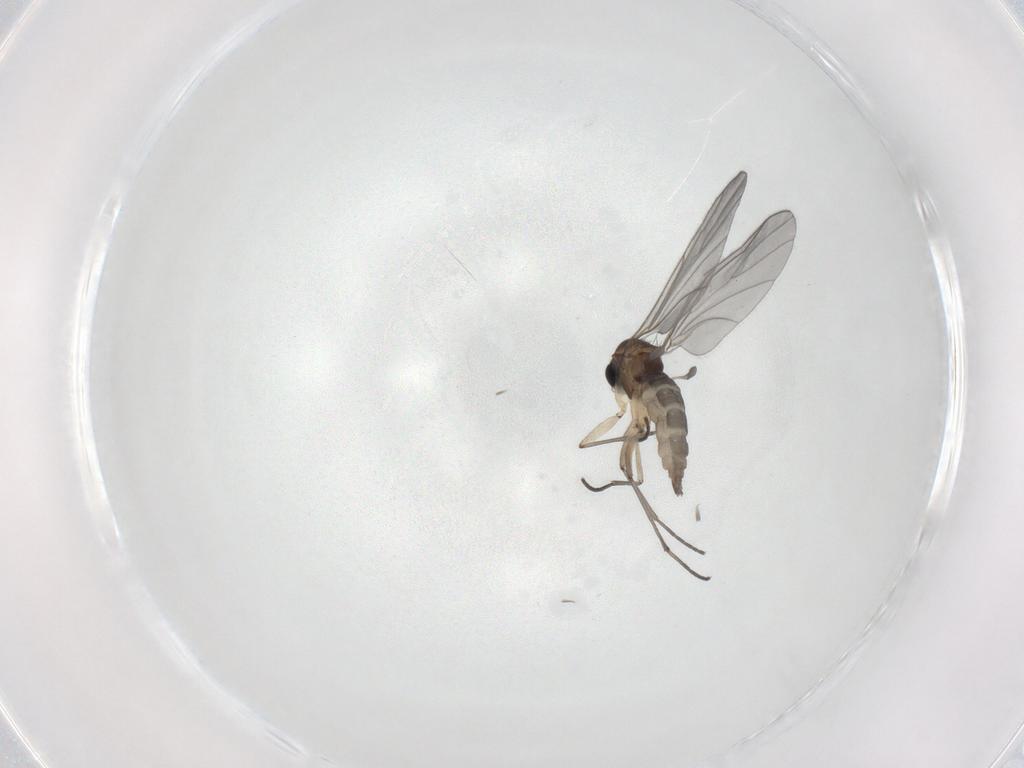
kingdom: Animalia
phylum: Arthropoda
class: Insecta
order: Diptera
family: Sciaridae
